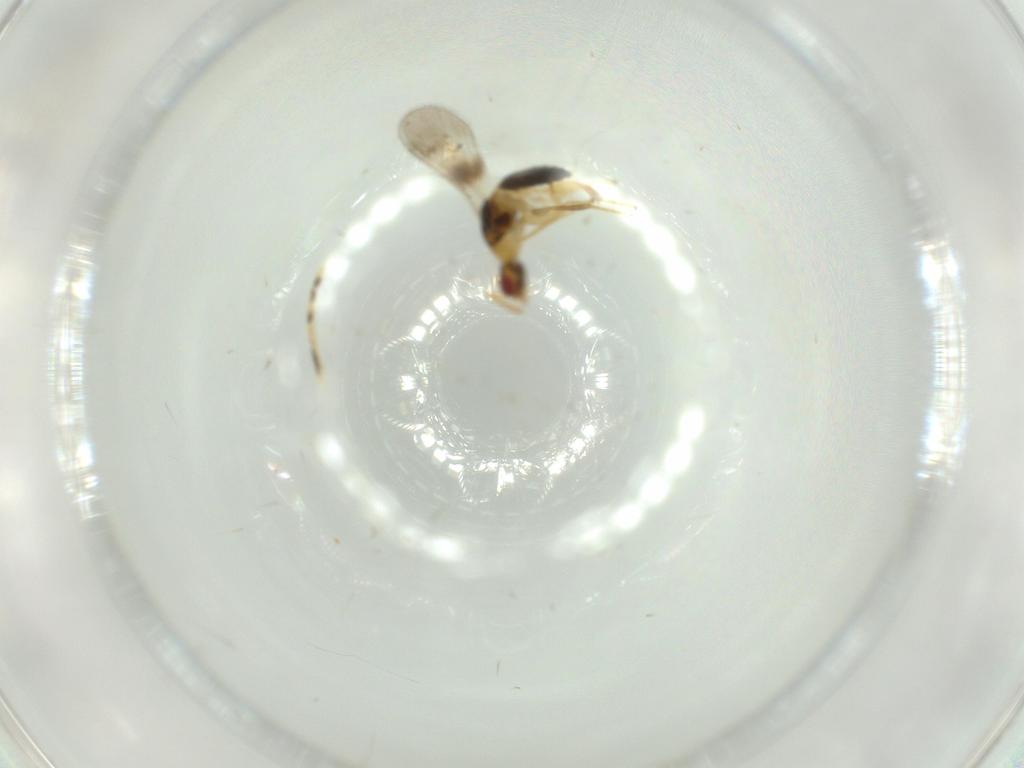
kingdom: Animalia
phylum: Arthropoda
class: Insecta
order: Hymenoptera
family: Torymidae
